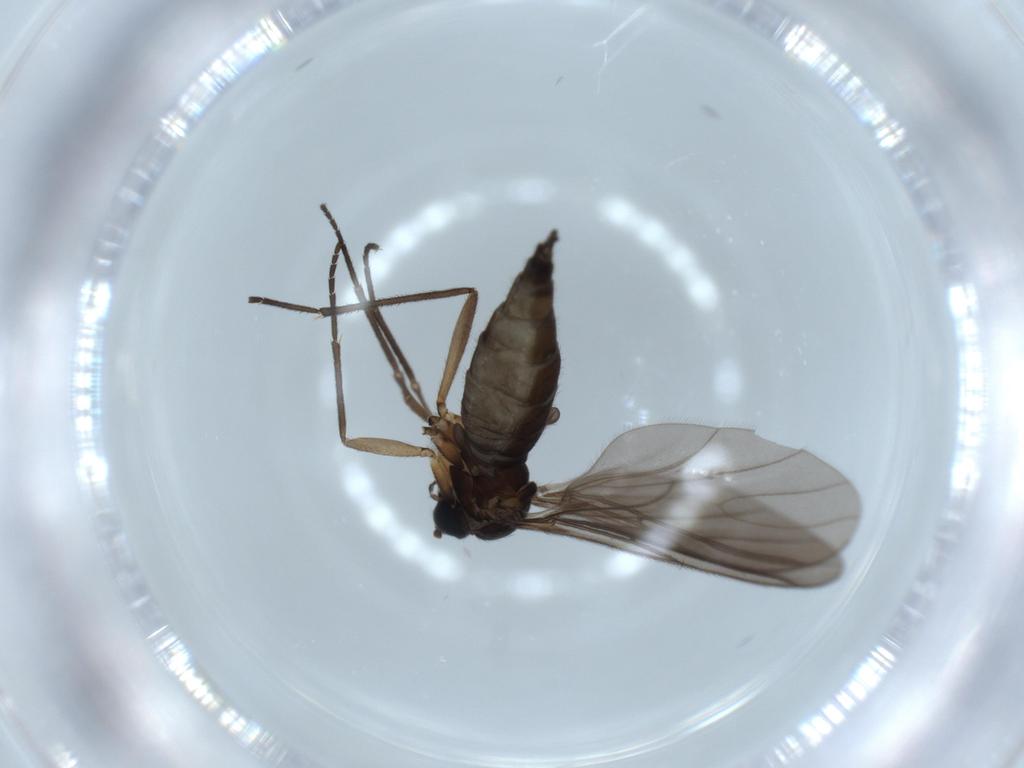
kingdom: Animalia
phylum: Arthropoda
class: Insecta
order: Diptera
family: Sciaridae
